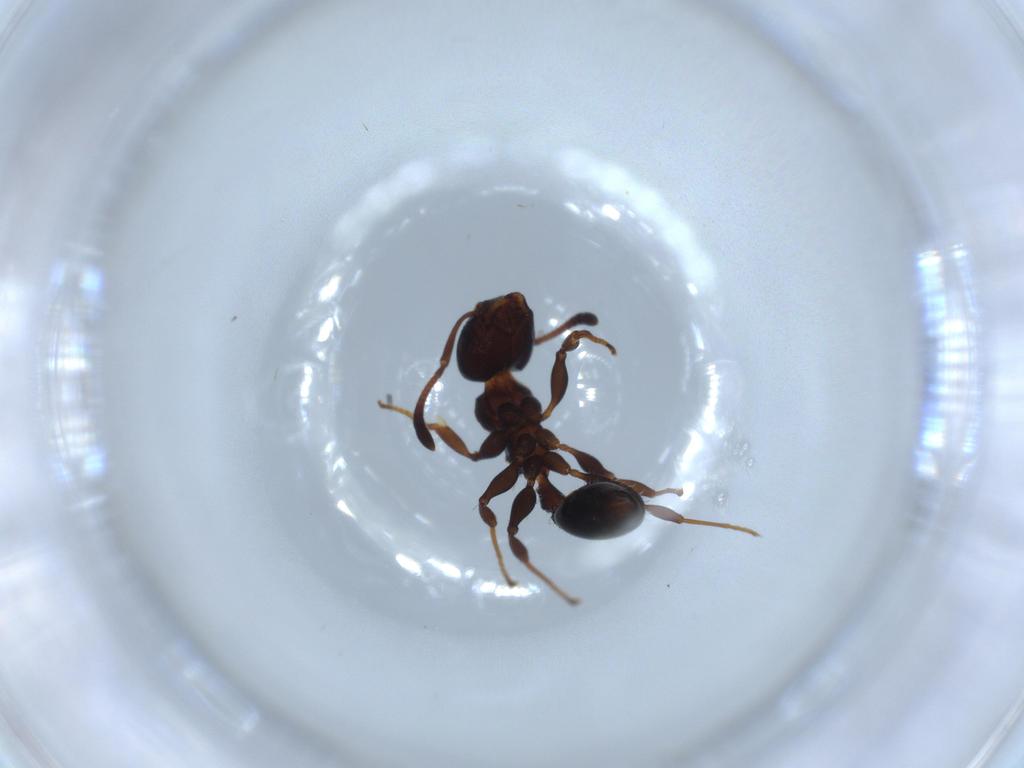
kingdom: Animalia
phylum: Arthropoda
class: Insecta
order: Hymenoptera
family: Formicidae
